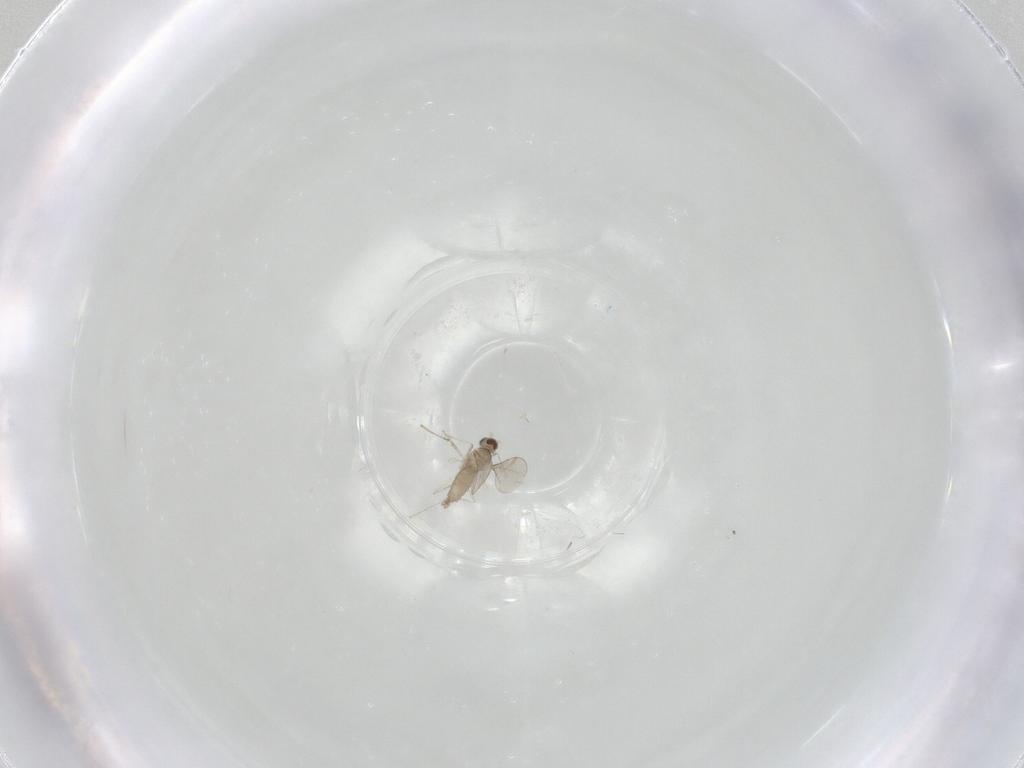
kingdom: Animalia
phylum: Arthropoda
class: Insecta
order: Diptera
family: Cecidomyiidae
